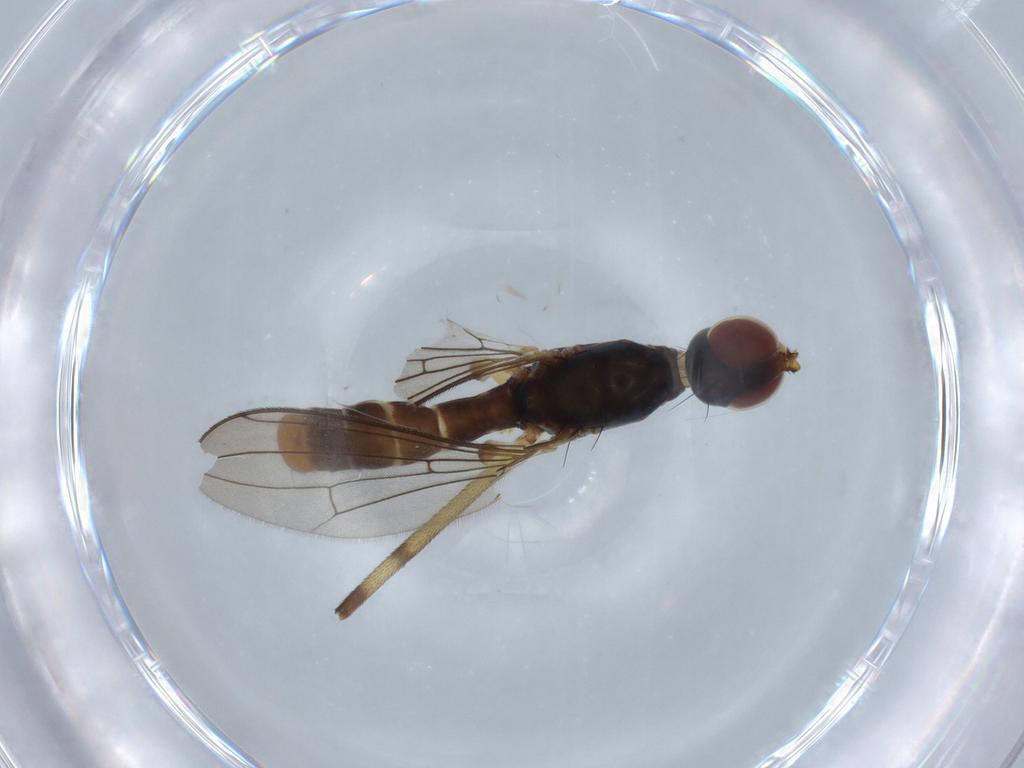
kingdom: Animalia
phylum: Arthropoda
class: Insecta
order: Diptera
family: Micropezidae
